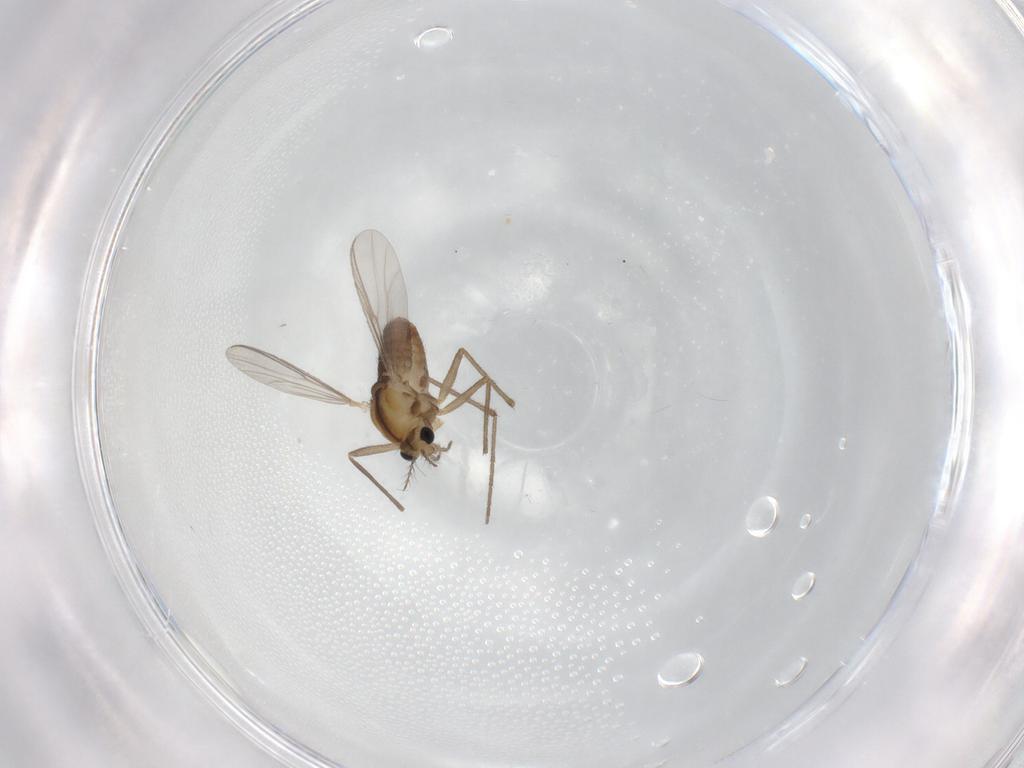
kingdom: Animalia
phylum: Arthropoda
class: Insecta
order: Diptera
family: Chironomidae
